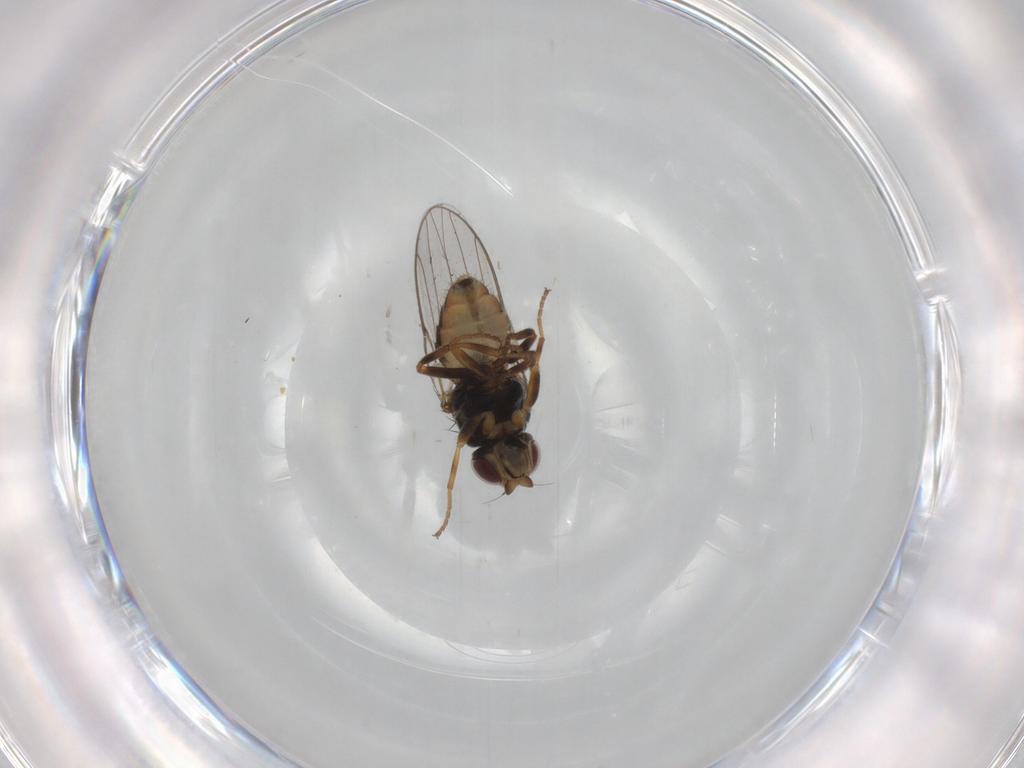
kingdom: Animalia
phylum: Arthropoda
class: Insecta
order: Diptera
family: Chloropidae
